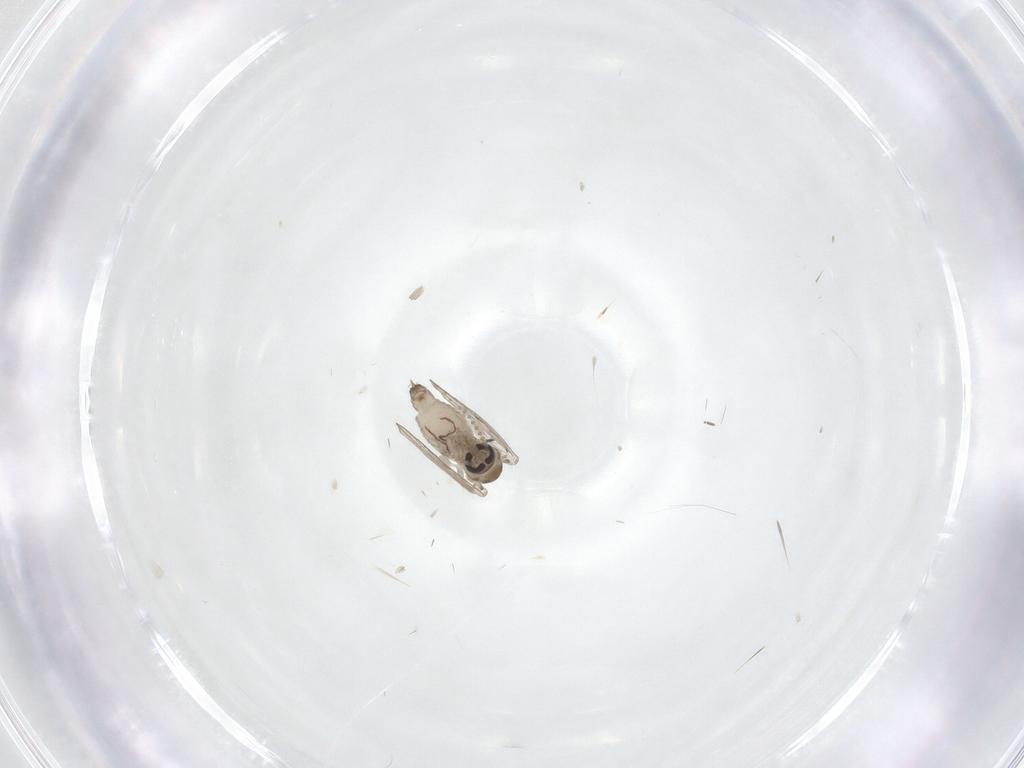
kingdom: Animalia
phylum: Arthropoda
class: Insecta
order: Diptera
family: Psychodidae
